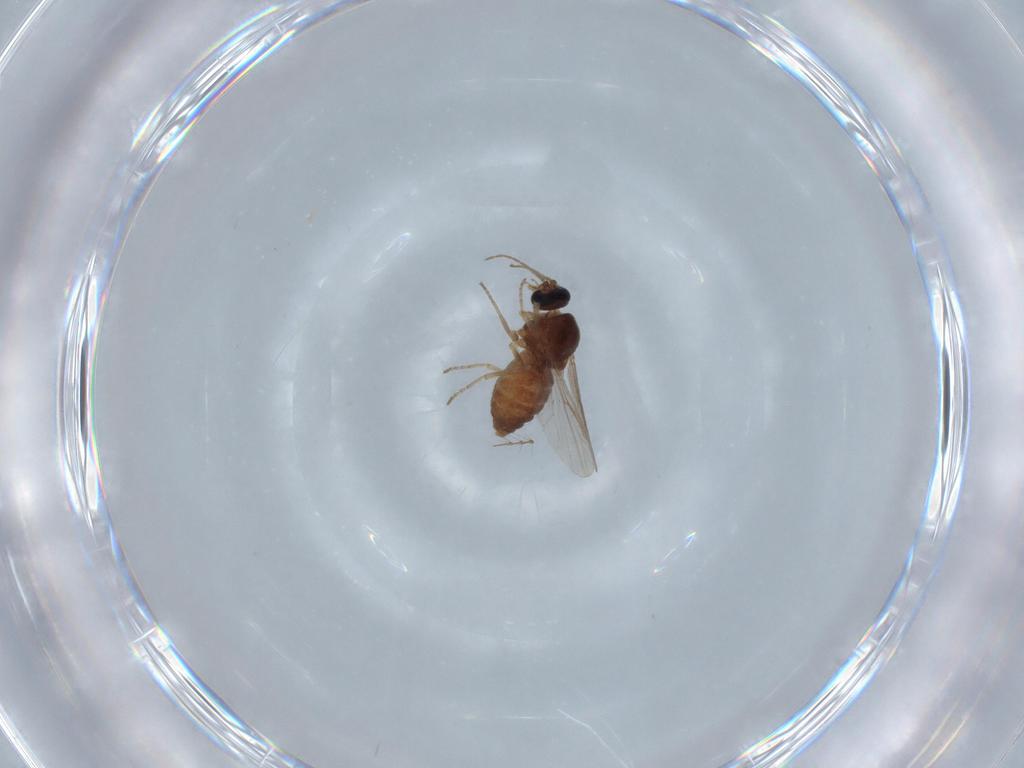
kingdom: Animalia
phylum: Arthropoda
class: Insecta
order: Diptera
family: Ceratopogonidae
